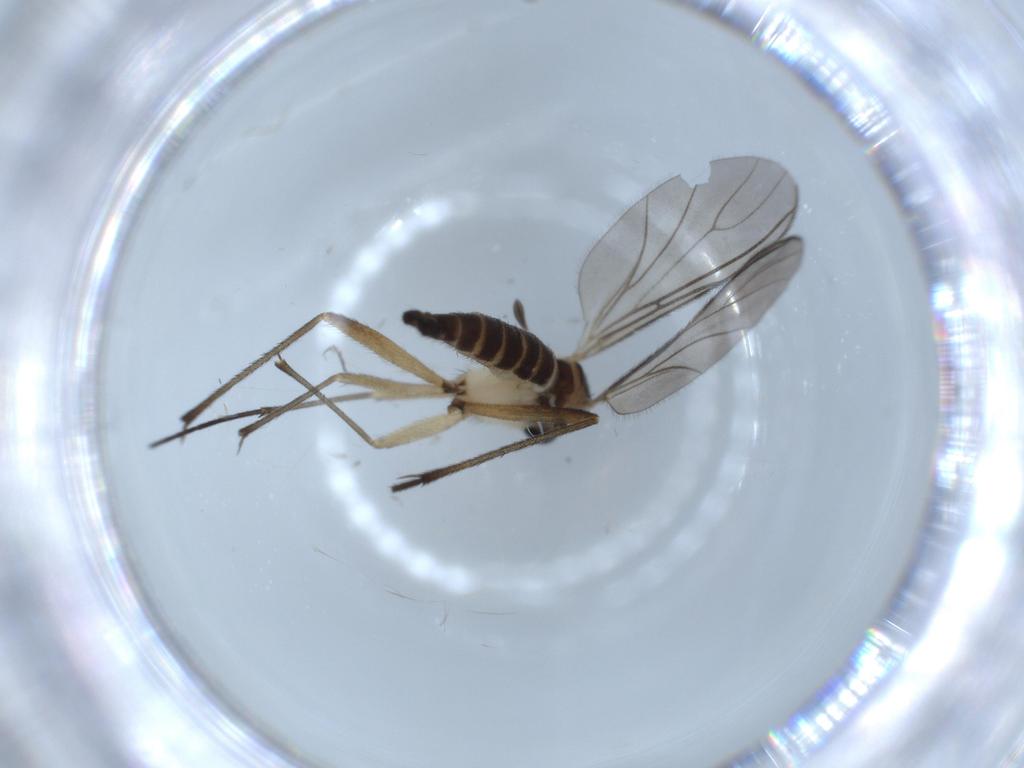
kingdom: Animalia
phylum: Arthropoda
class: Insecta
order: Diptera
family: Sciaridae
